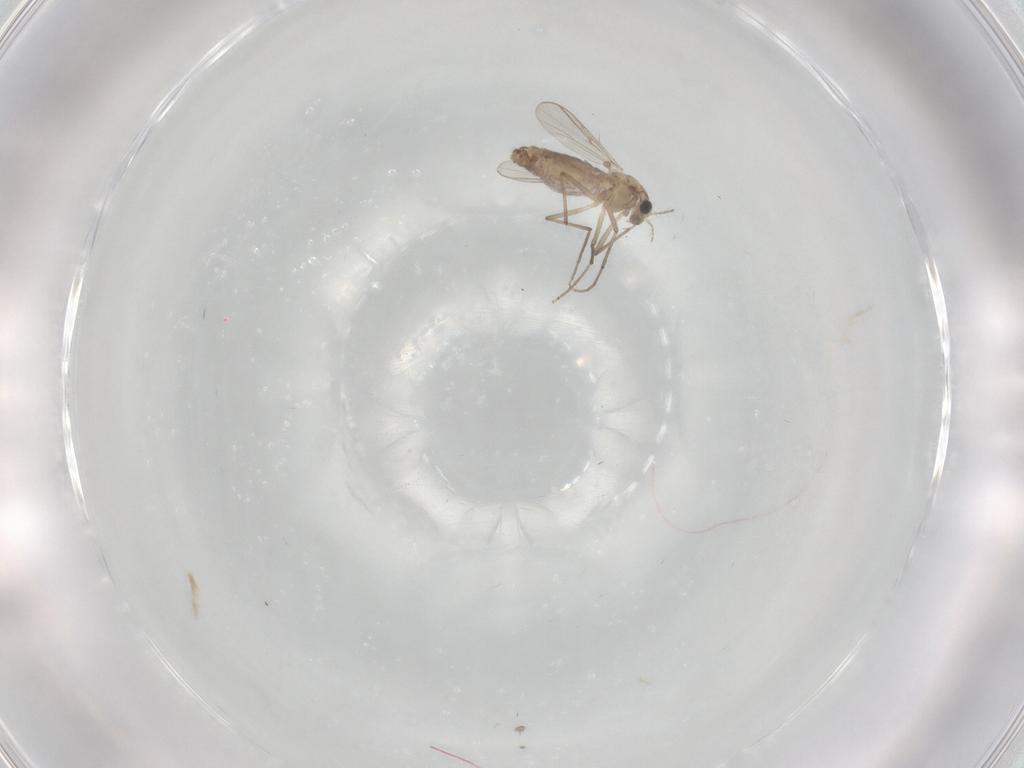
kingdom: Animalia
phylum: Arthropoda
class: Insecta
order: Diptera
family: Chironomidae
